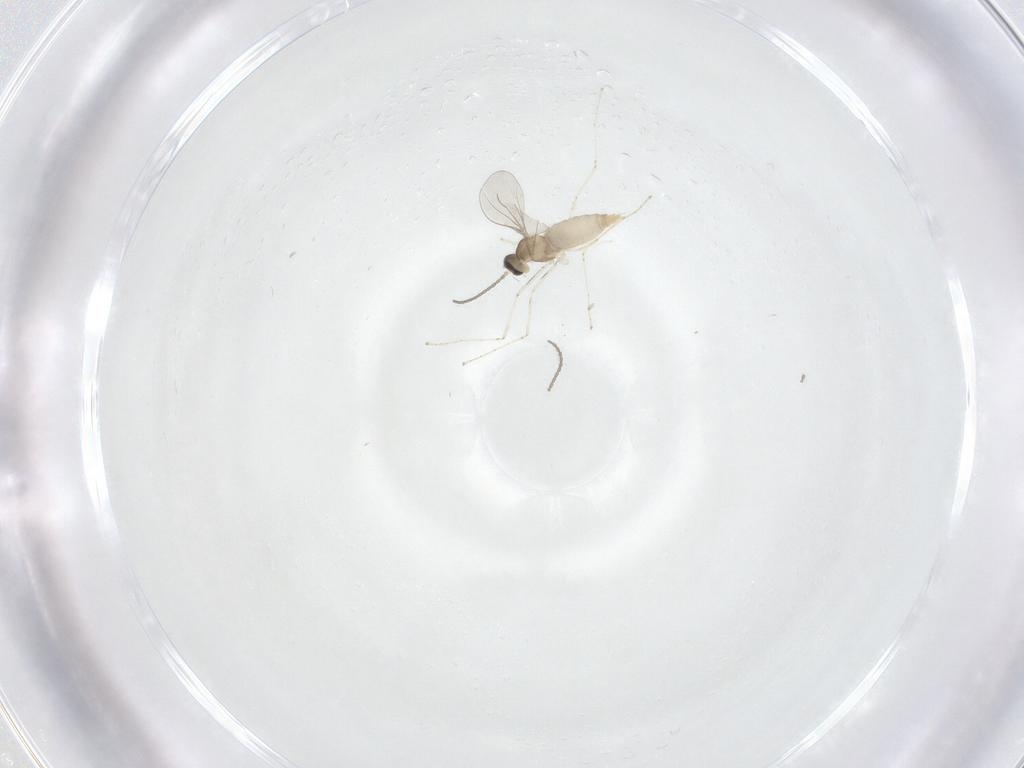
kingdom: Animalia
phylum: Arthropoda
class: Insecta
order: Diptera
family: Cecidomyiidae
